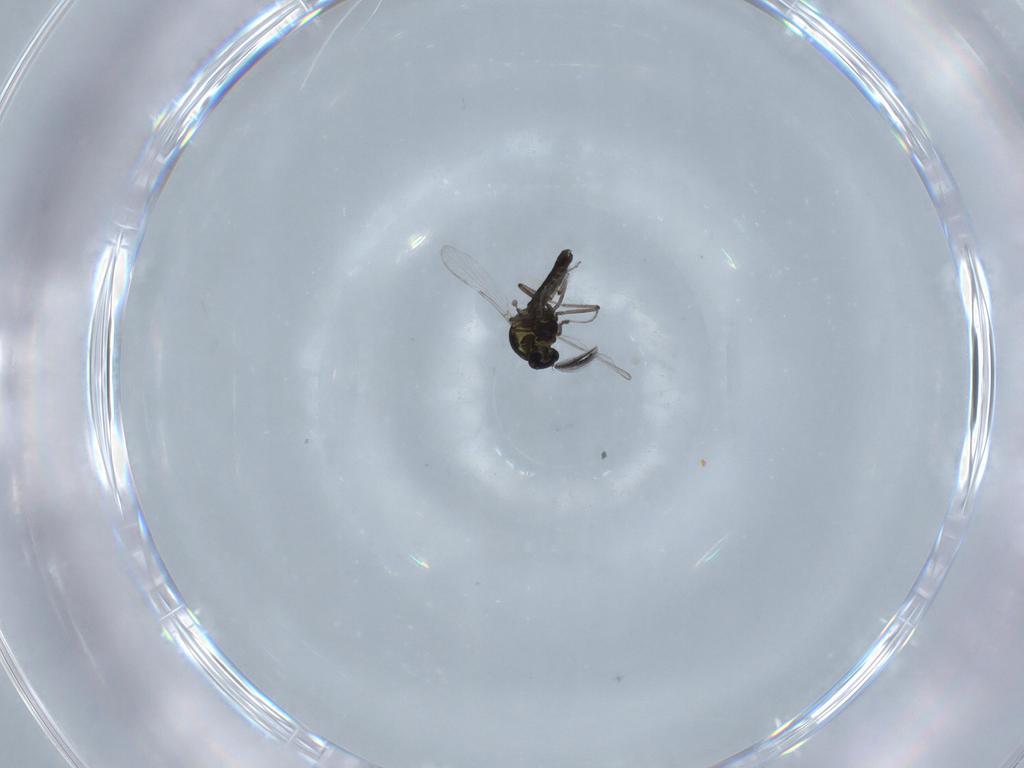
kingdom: Animalia
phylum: Arthropoda
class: Insecta
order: Diptera
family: Ceratopogonidae
